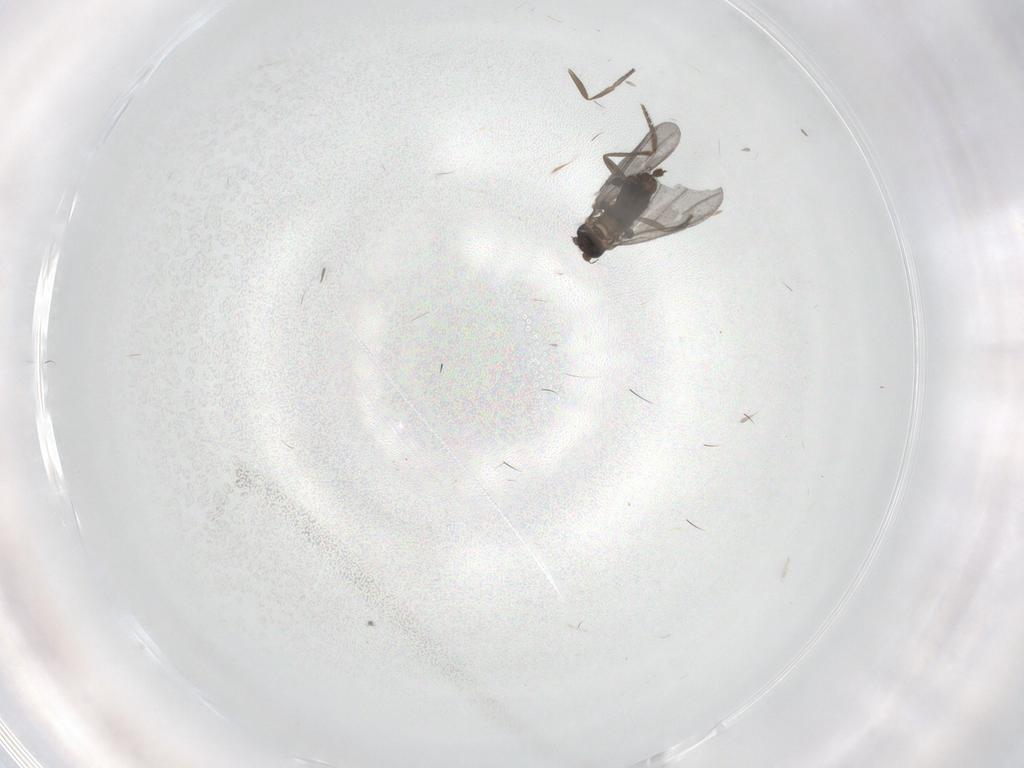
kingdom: Animalia
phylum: Arthropoda
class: Insecta
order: Diptera
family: Phoridae
